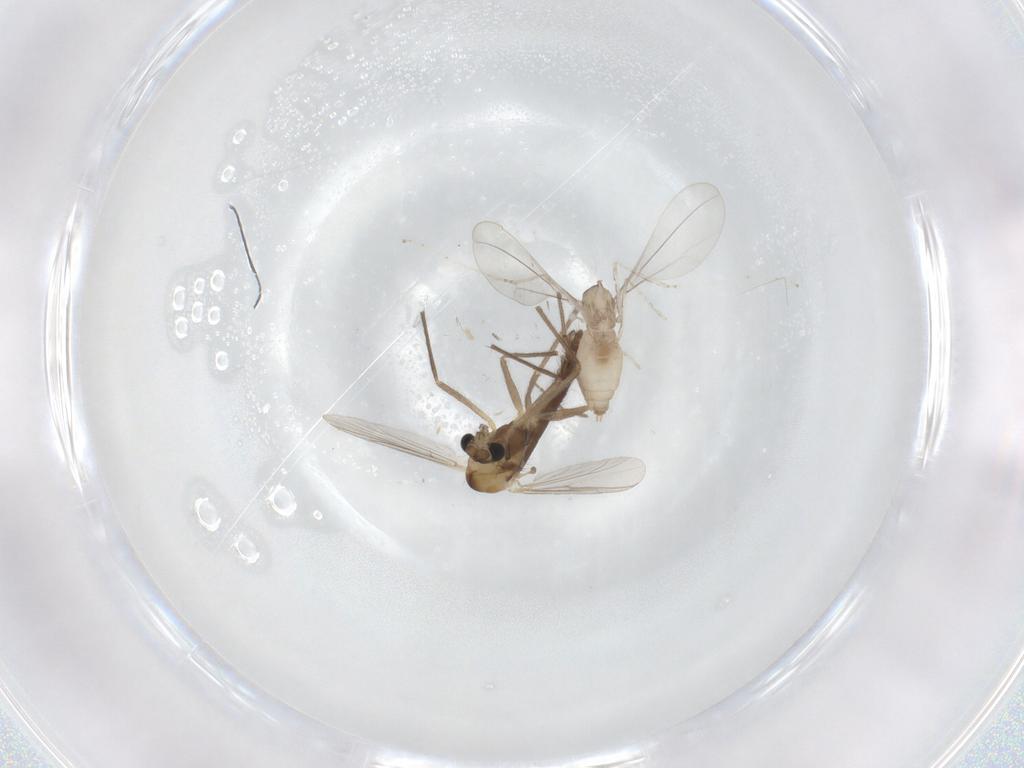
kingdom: Animalia
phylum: Arthropoda
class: Insecta
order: Diptera
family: Chironomidae
